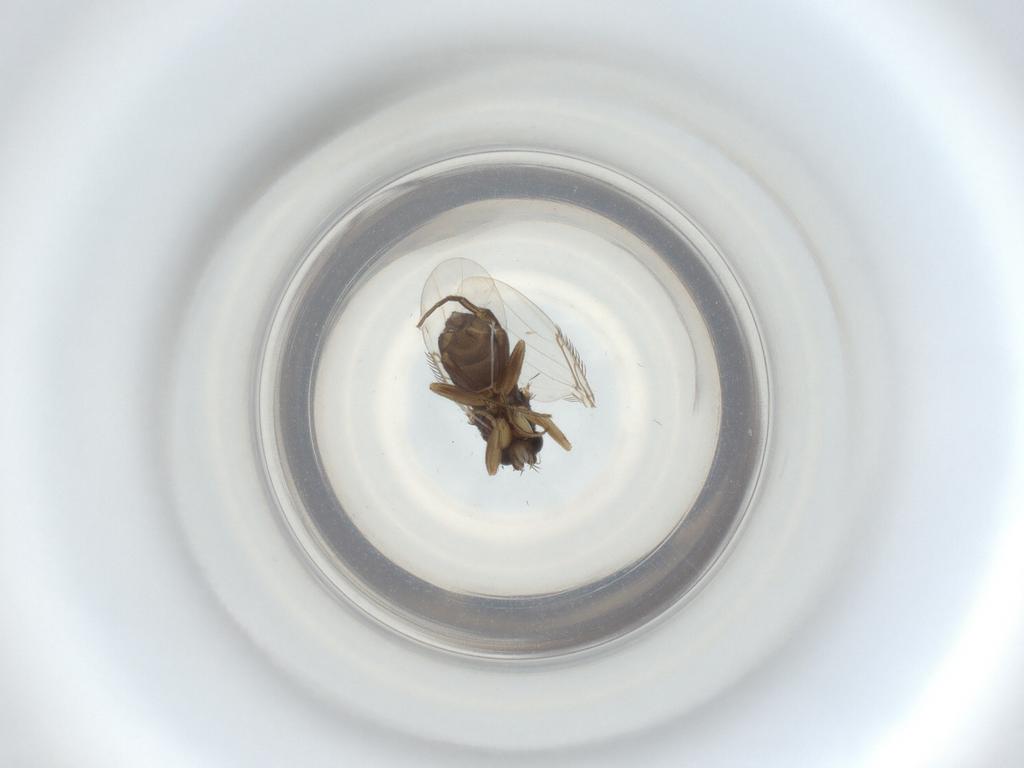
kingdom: Animalia
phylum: Arthropoda
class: Insecta
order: Diptera
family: Phoridae
